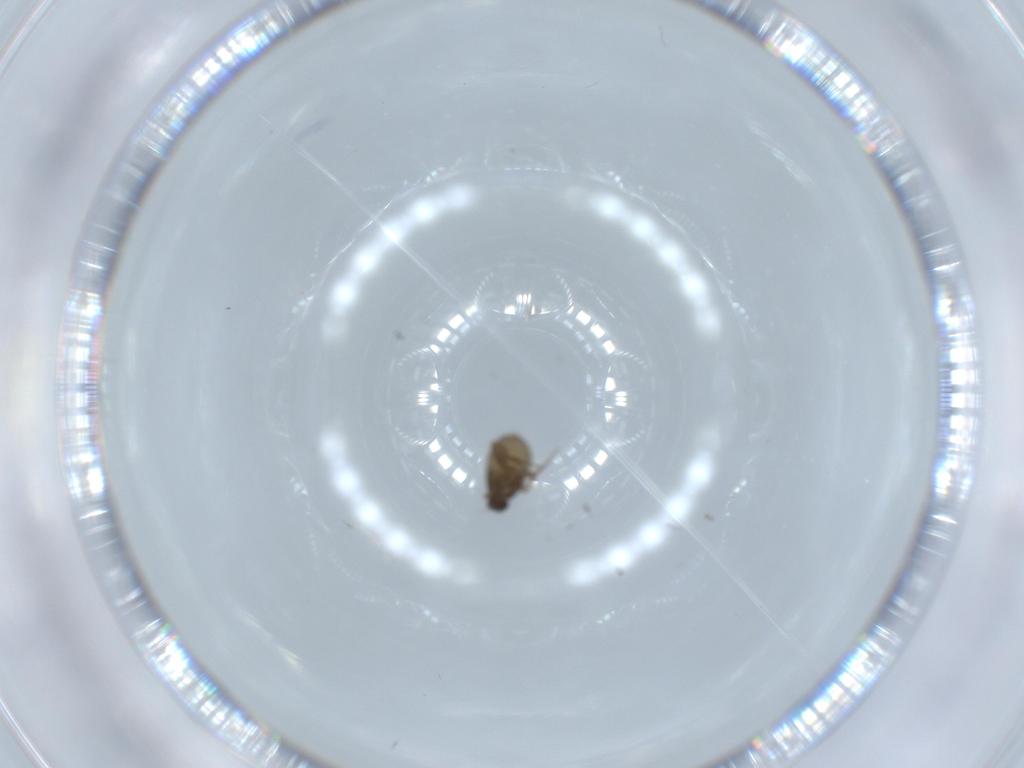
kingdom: Animalia
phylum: Arthropoda
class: Insecta
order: Diptera
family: Phoridae
